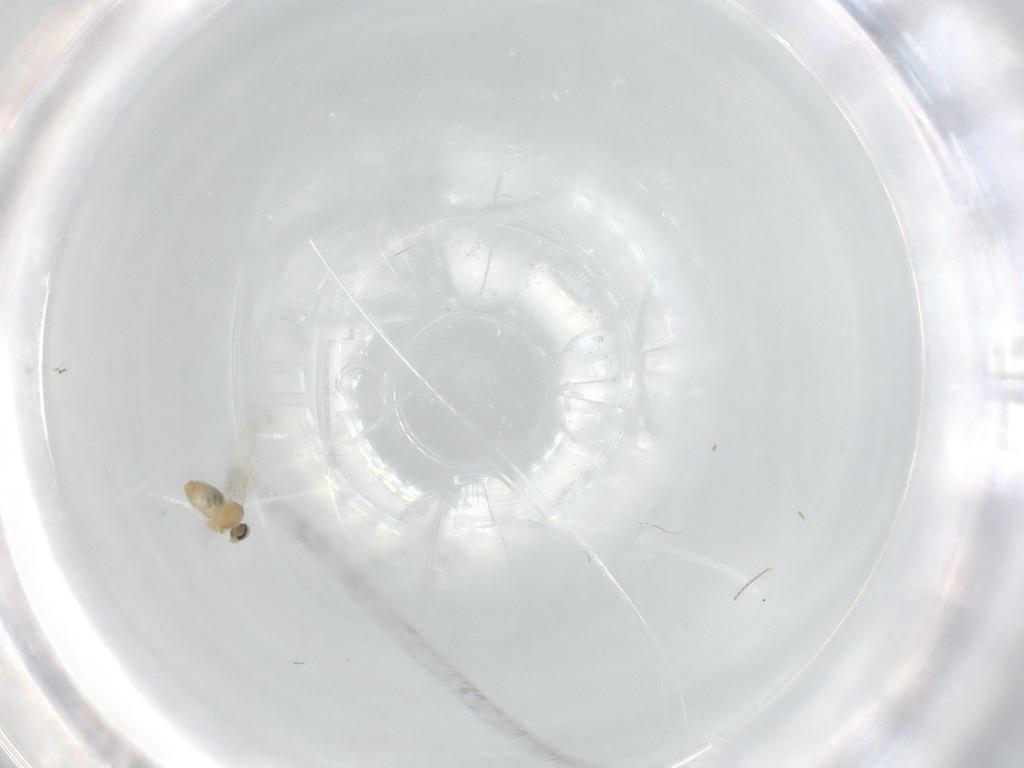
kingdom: Animalia
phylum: Arthropoda
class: Insecta
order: Diptera
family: Cecidomyiidae
